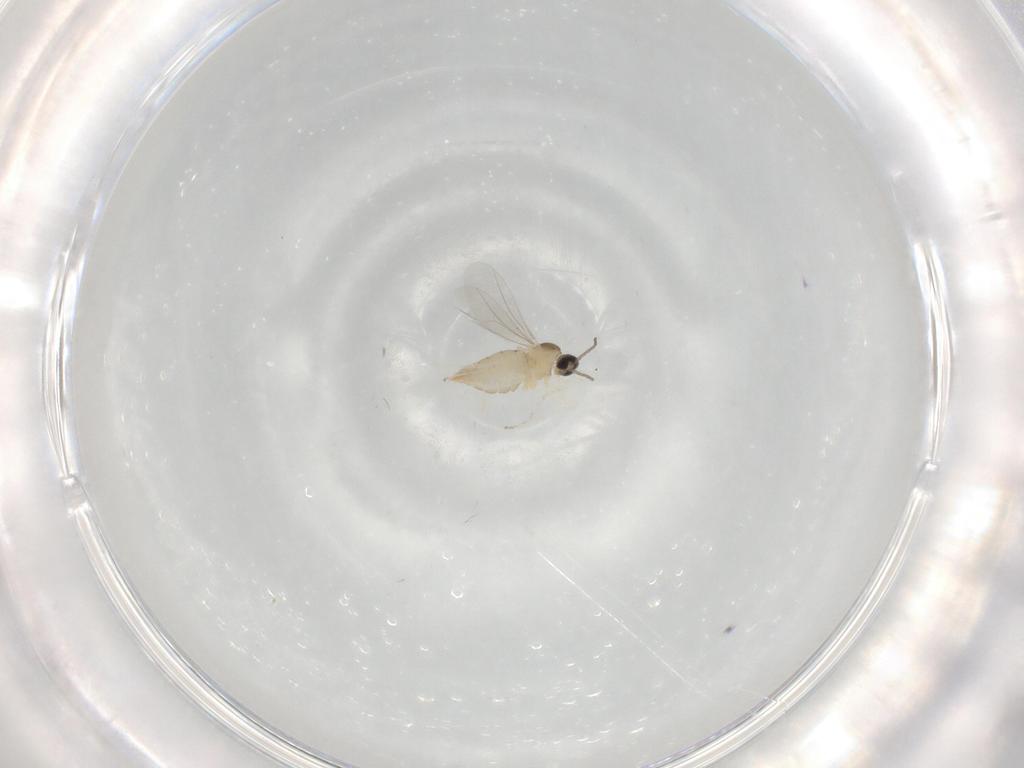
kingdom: Animalia
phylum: Arthropoda
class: Insecta
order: Diptera
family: Cecidomyiidae
